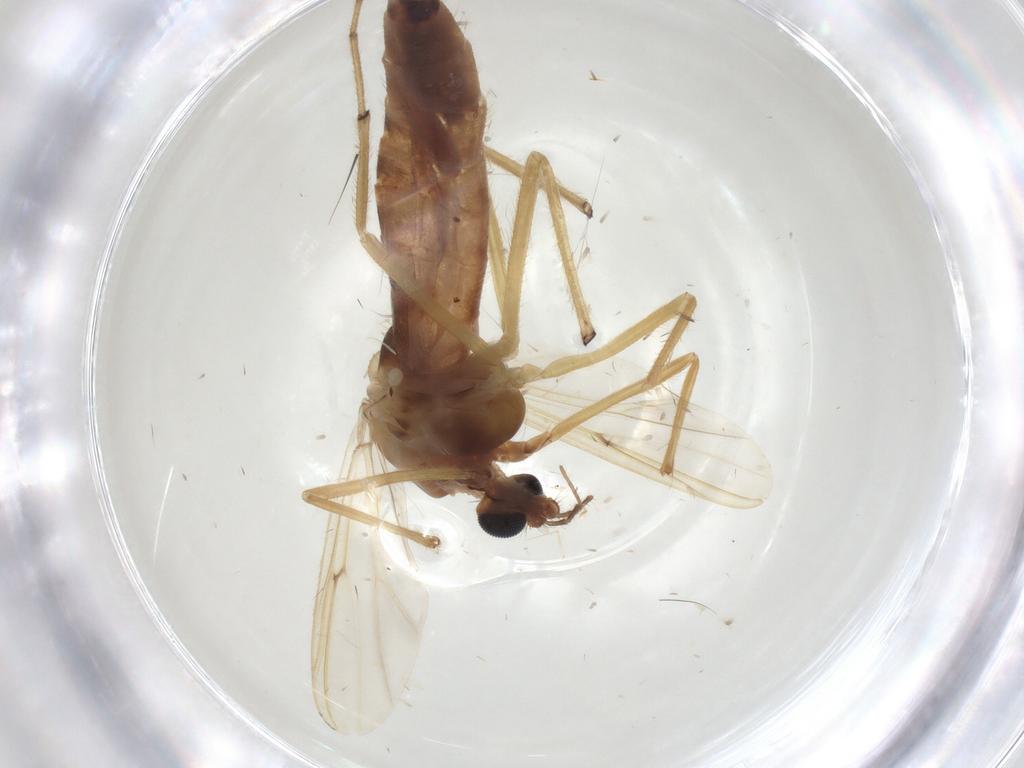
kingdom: Animalia
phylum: Arthropoda
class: Insecta
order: Diptera
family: Chironomidae
